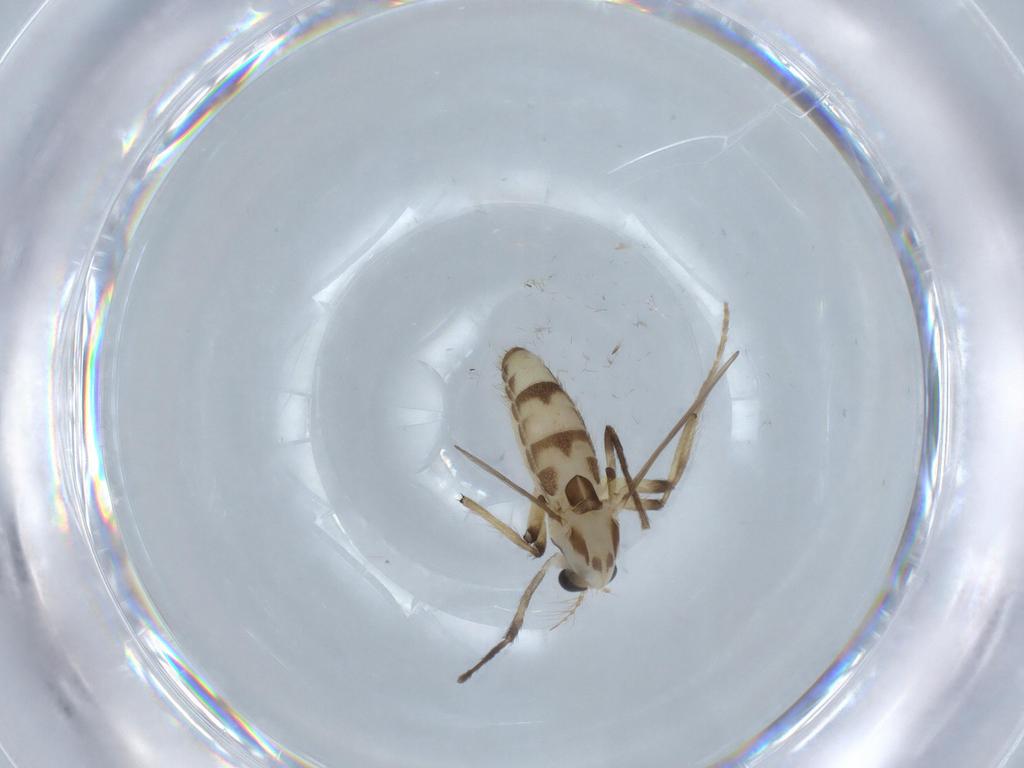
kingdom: Animalia
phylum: Arthropoda
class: Insecta
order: Diptera
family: Chironomidae
